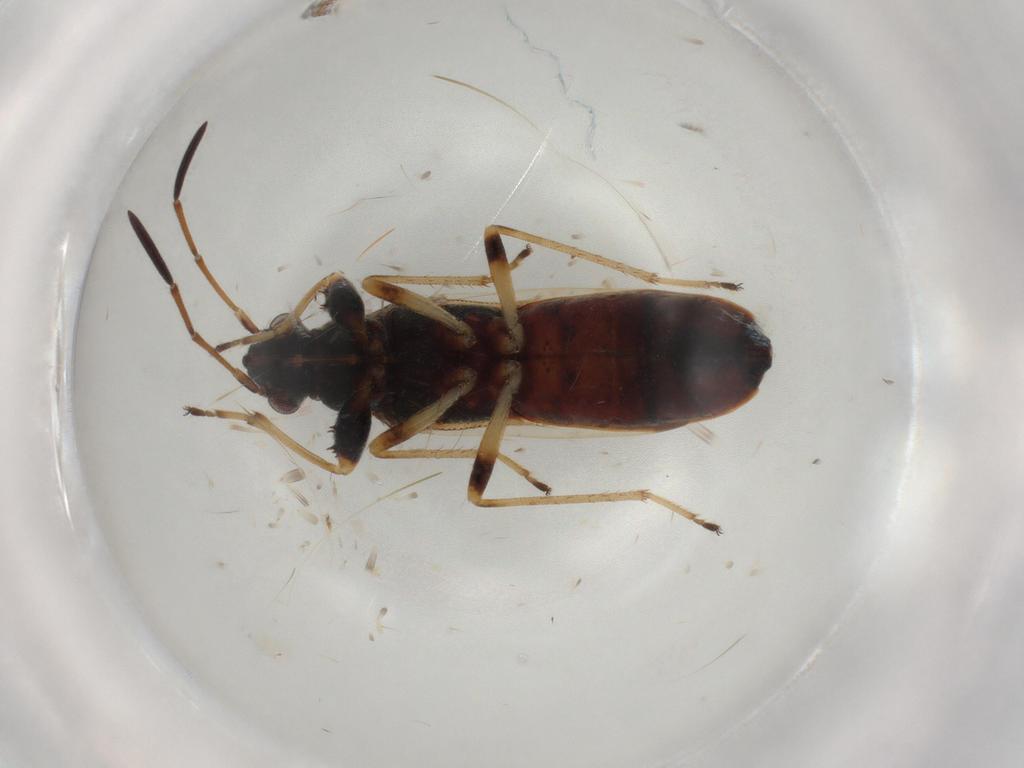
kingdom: Animalia
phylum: Arthropoda
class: Insecta
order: Hemiptera
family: Rhyparochromidae
